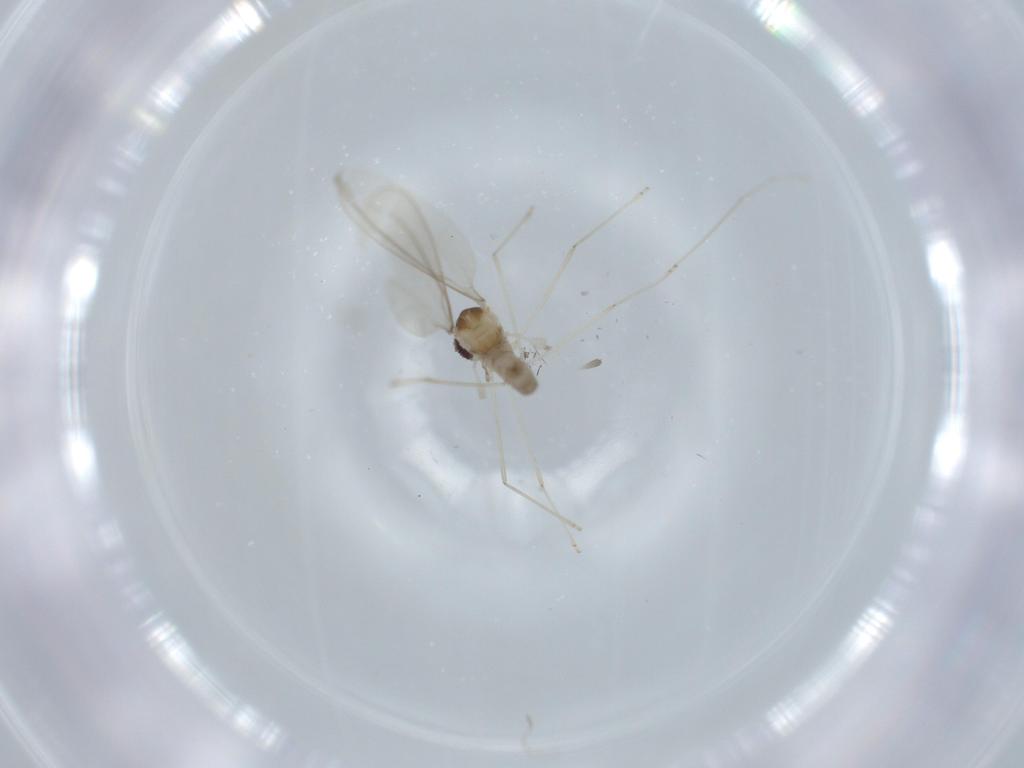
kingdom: Animalia
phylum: Arthropoda
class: Insecta
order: Diptera
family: Cecidomyiidae
